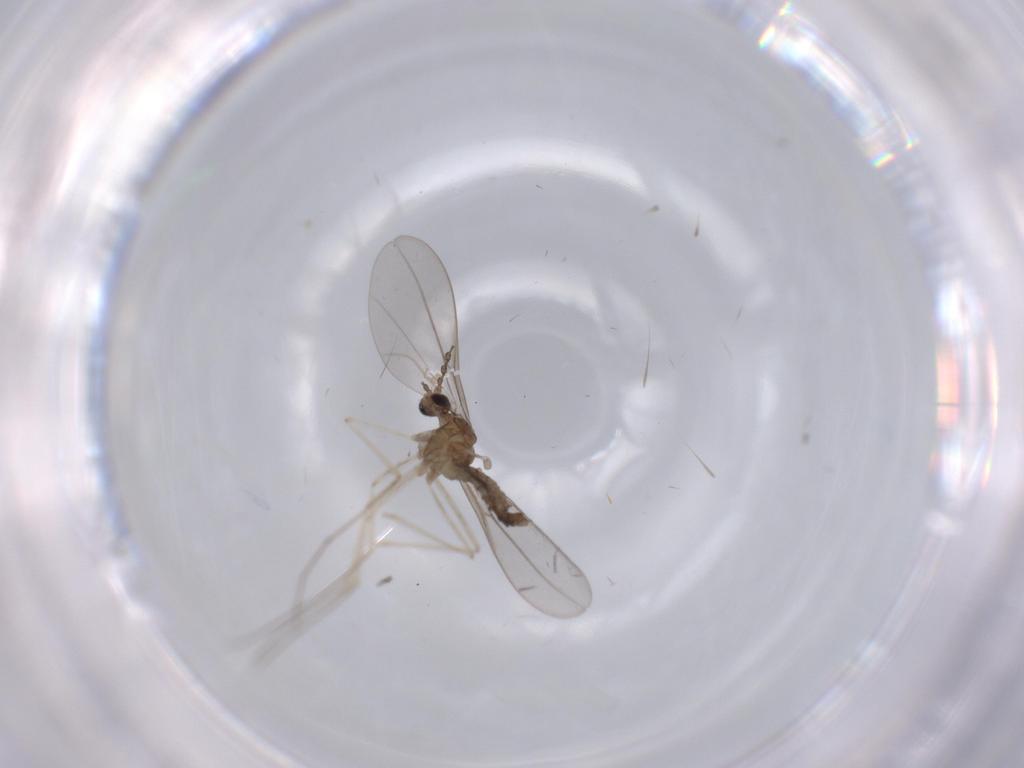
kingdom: Animalia
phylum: Arthropoda
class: Insecta
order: Diptera
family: Cecidomyiidae
